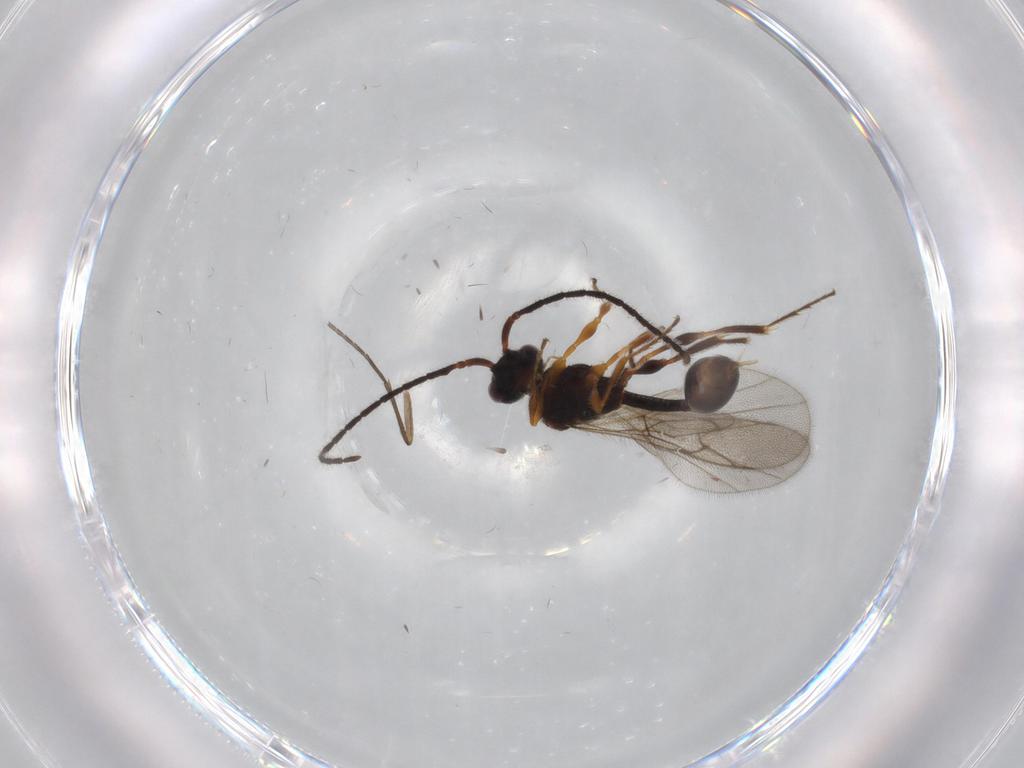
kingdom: Animalia
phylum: Arthropoda
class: Insecta
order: Hymenoptera
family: Diapriidae
